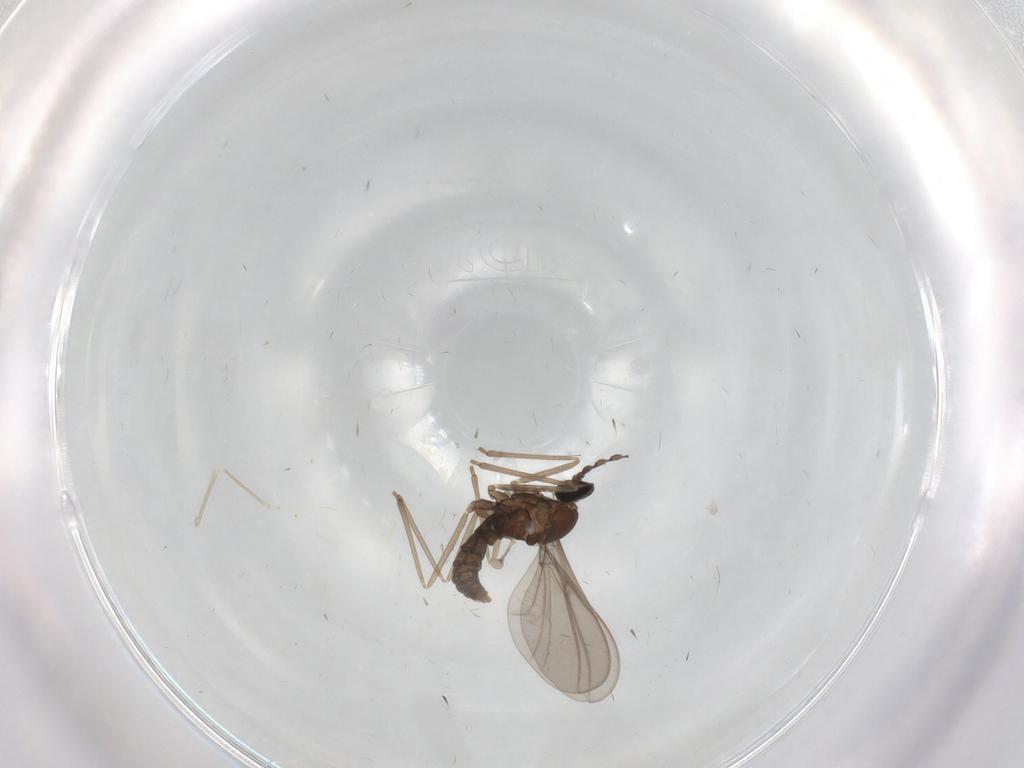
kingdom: Animalia
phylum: Arthropoda
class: Insecta
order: Diptera
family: Cecidomyiidae
